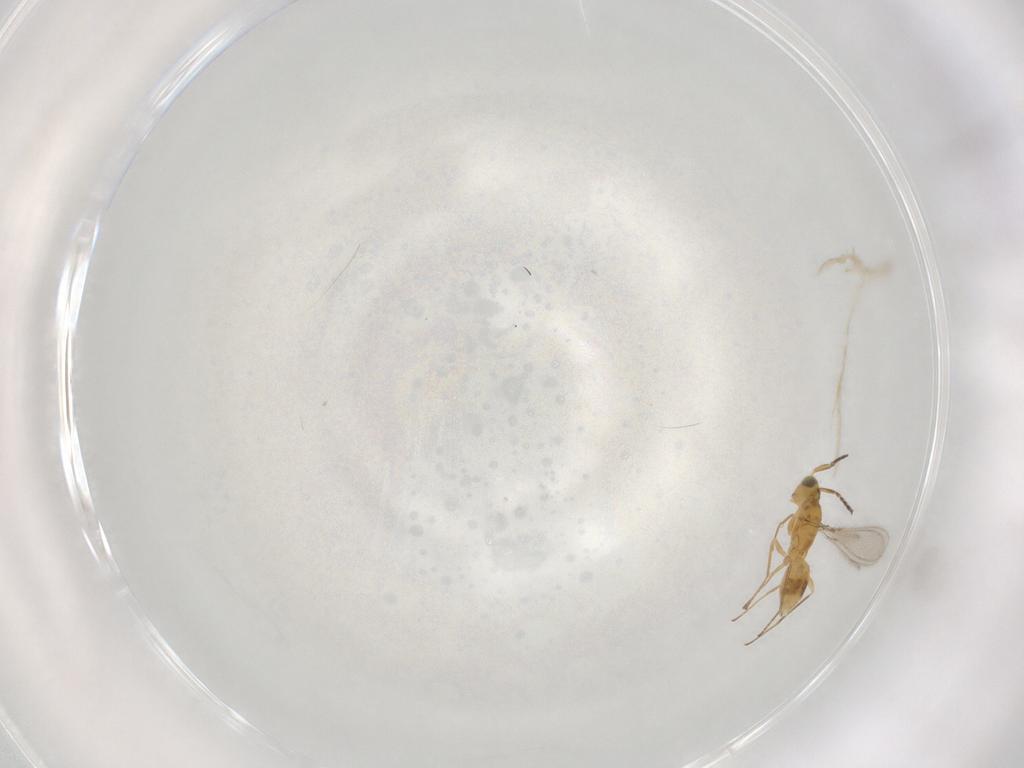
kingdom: Animalia
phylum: Arthropoda
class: Insecta
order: Hymenoptera
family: Mymaridae
